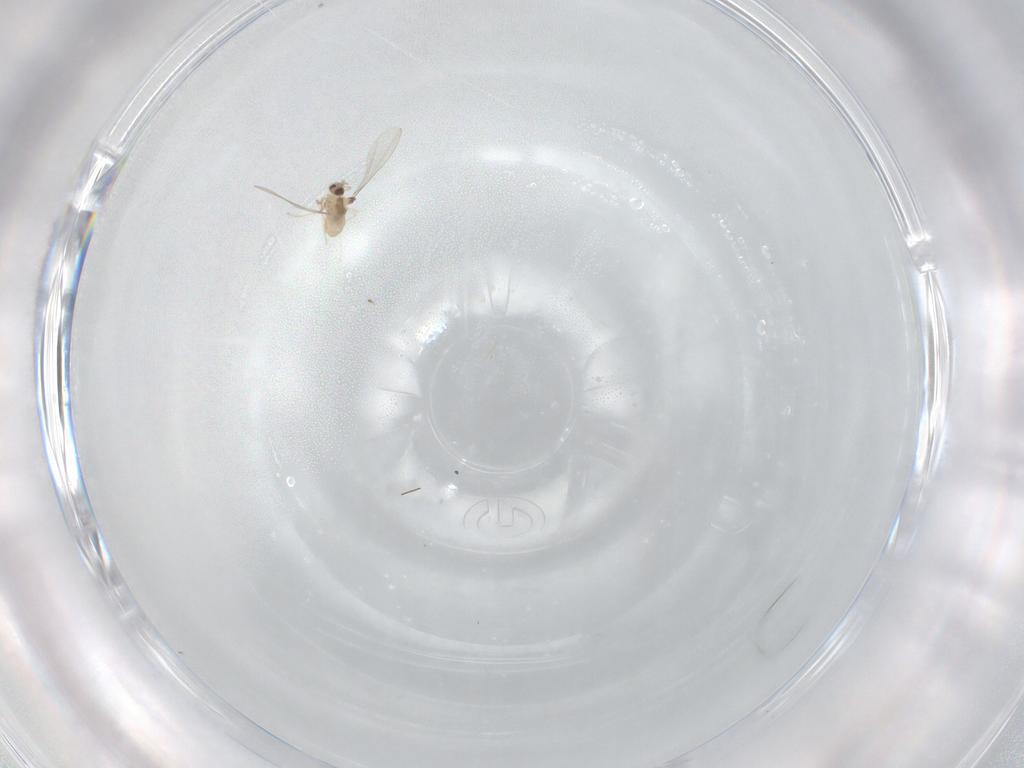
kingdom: Animalia
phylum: Arthropoda
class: Insecta
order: Diptera
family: Cecidomyiidae
